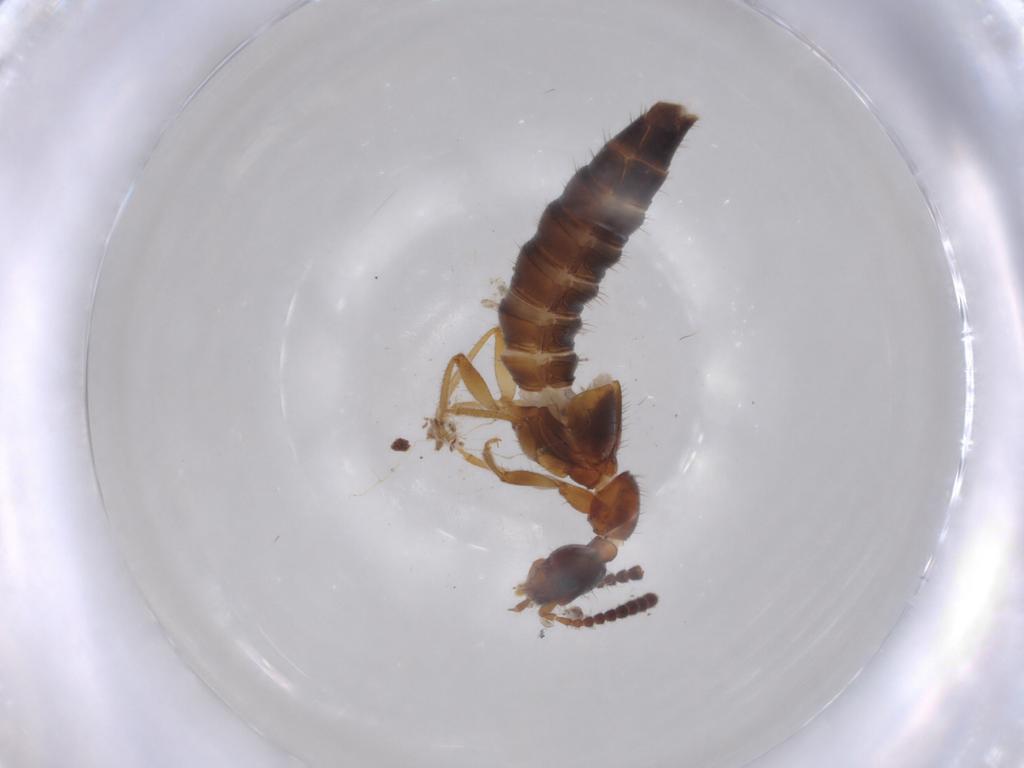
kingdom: Animalia
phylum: Arthropoda
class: Insecta
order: Coleoptera
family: Staphylinidae
